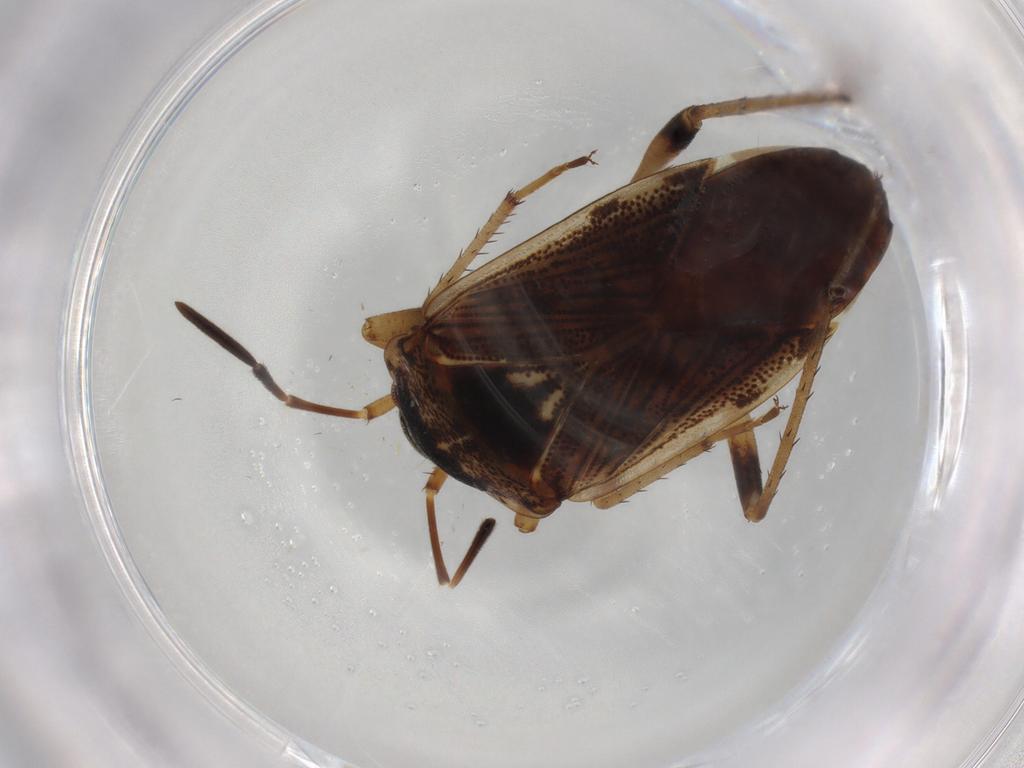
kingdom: Animalia
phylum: Arthropoda
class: Insecta
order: Hemiptera
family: Rhyparochromidae
